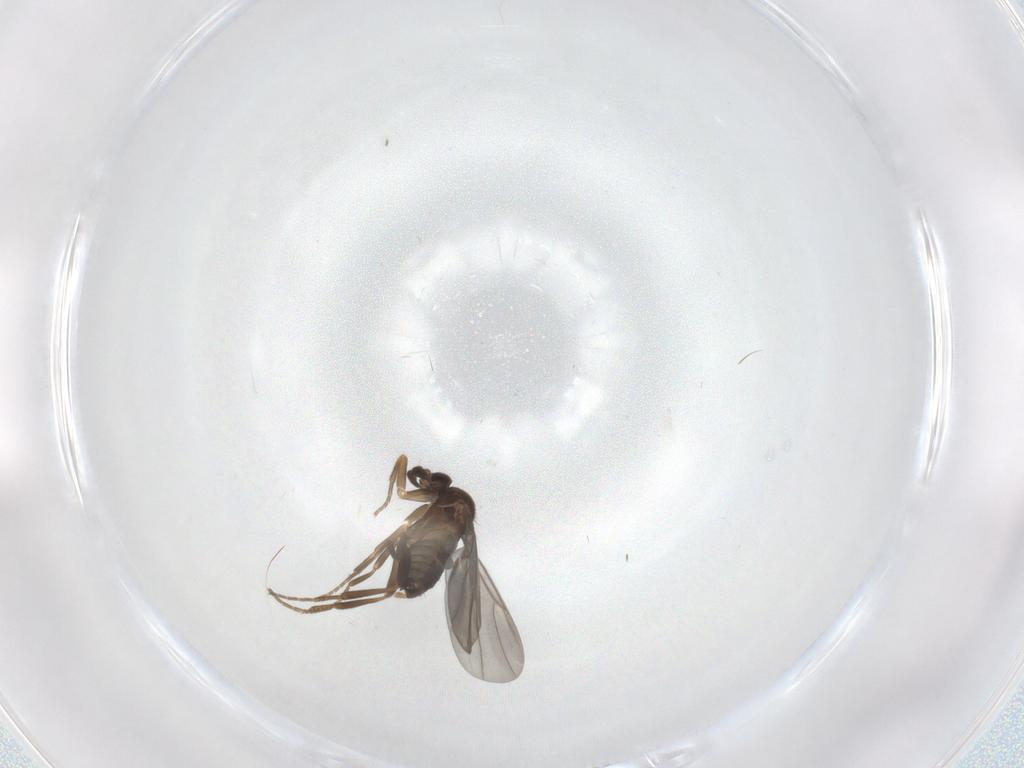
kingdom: Animalia
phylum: Arthropoda
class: Insecta
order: Diptera
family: Cecidomyiidae
